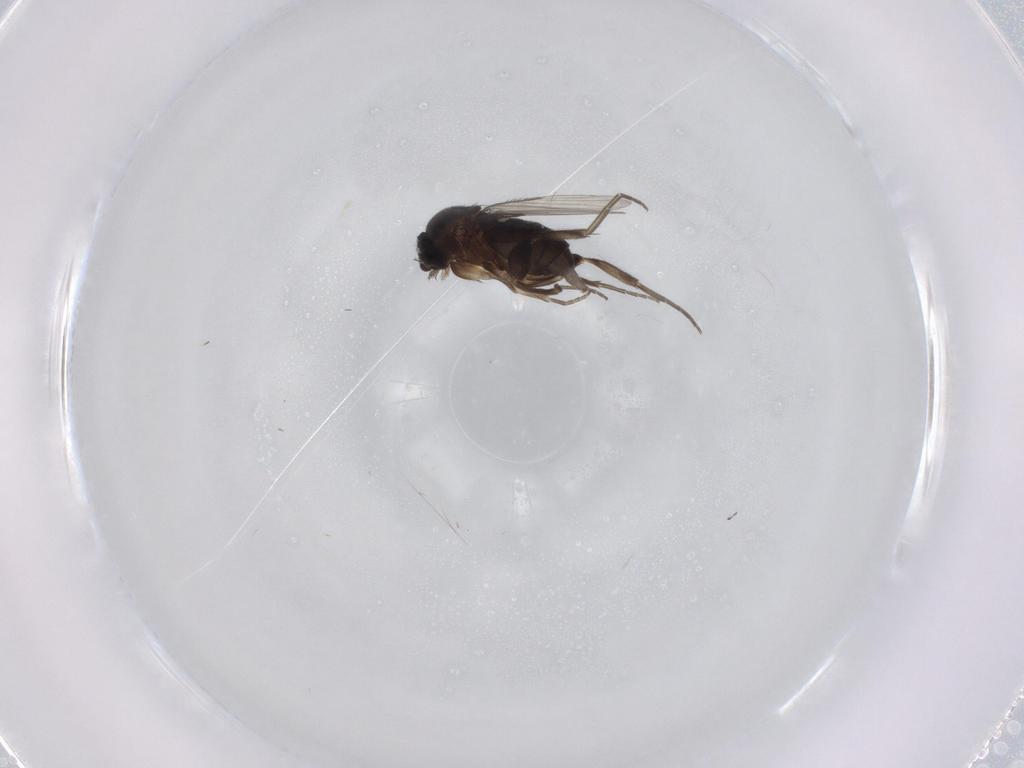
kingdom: Animalia
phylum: Arthropoda
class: Insecta
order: Diptera
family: Phoridae
